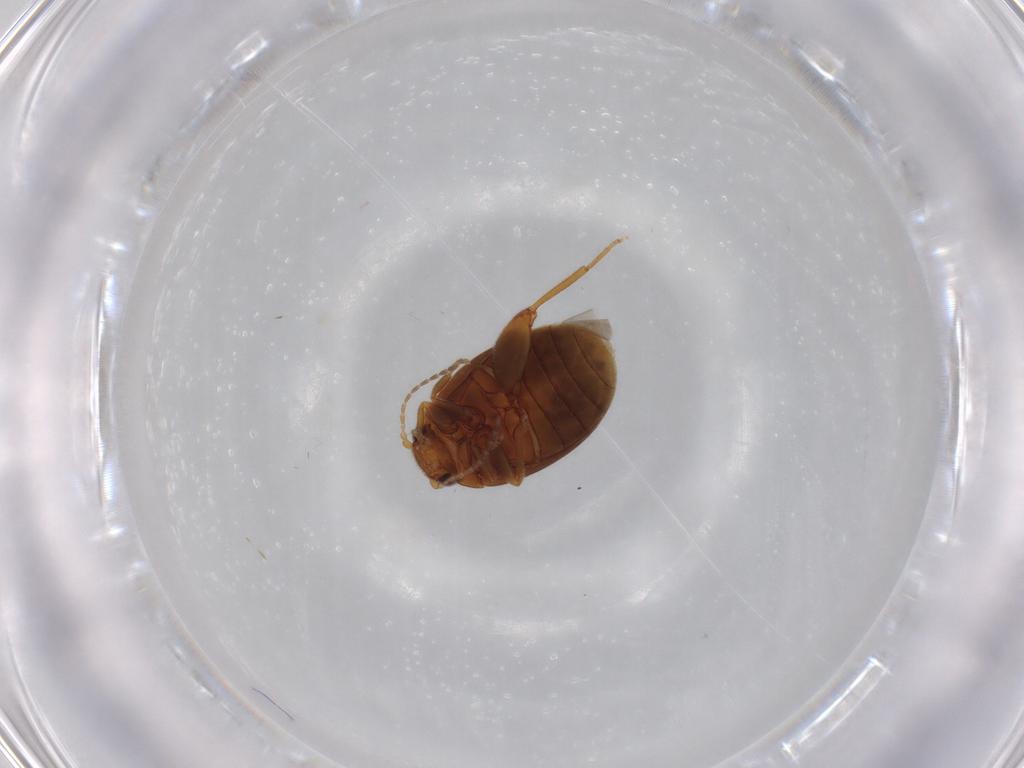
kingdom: Animalia
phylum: Arthropoda
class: Insecta
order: Coleoptera
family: Scirtidae
